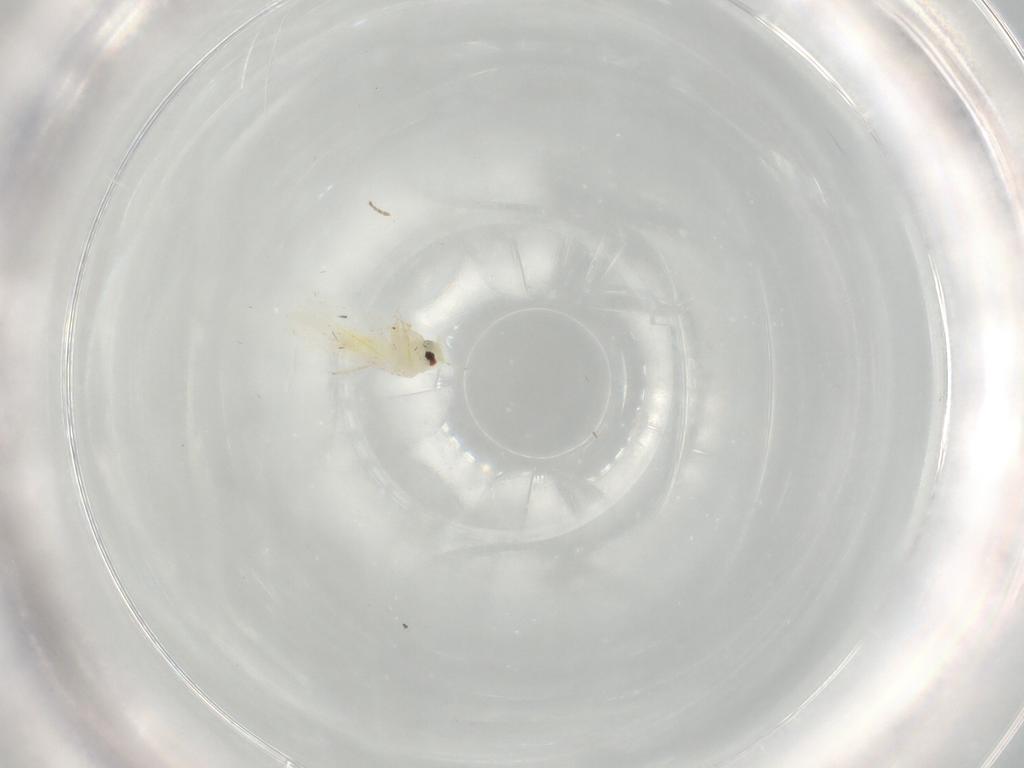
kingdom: Animalia
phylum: Arthropoda
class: Insecta
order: Hemiptera
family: Aleyrodidae
